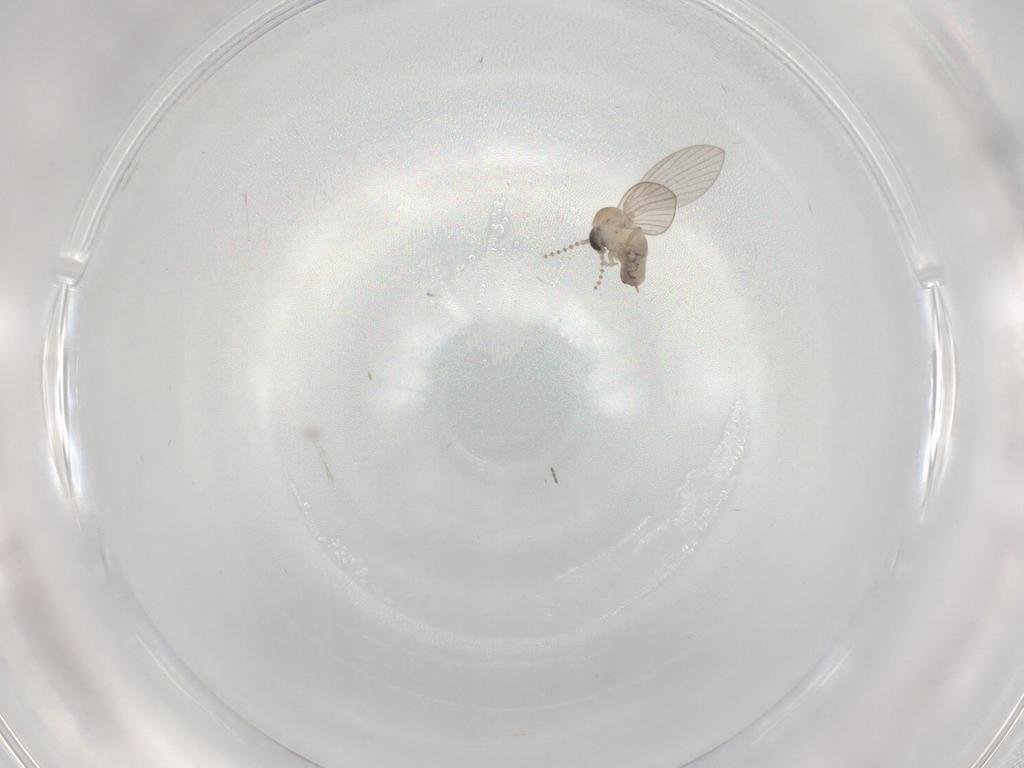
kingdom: Animalia
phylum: Arthropoda
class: Insecta
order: Diptera
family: Psychodidae
